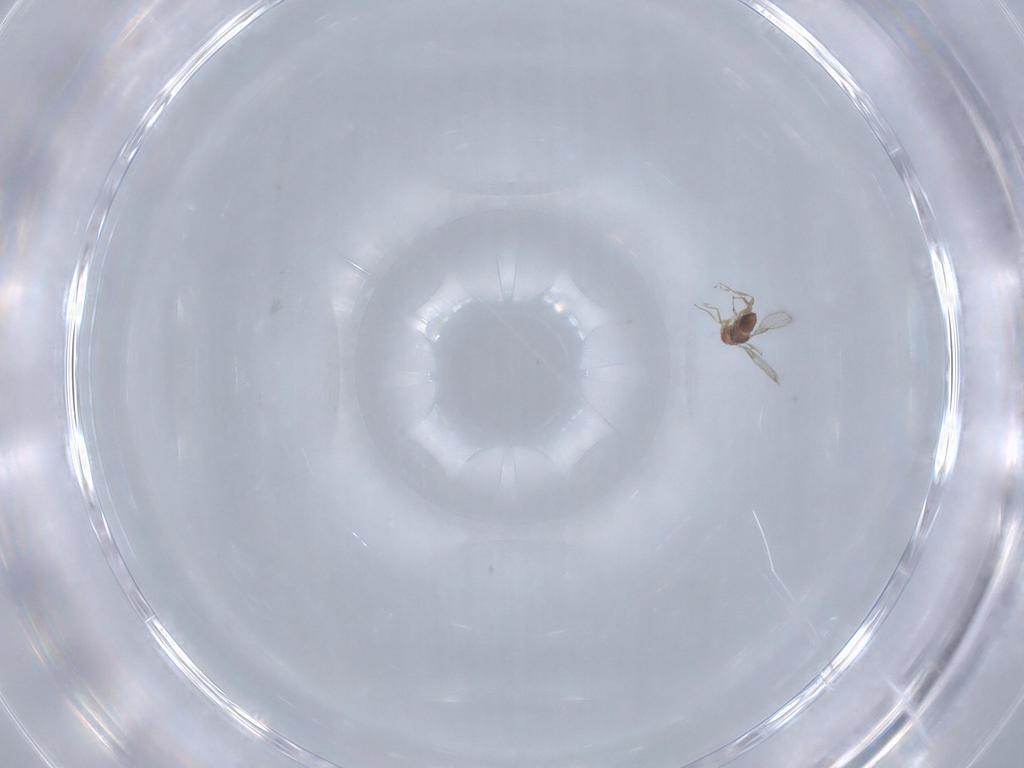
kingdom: Animalia
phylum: Arthropoda
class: Insecta
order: Hymenoptera
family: Trichogrammatidae
